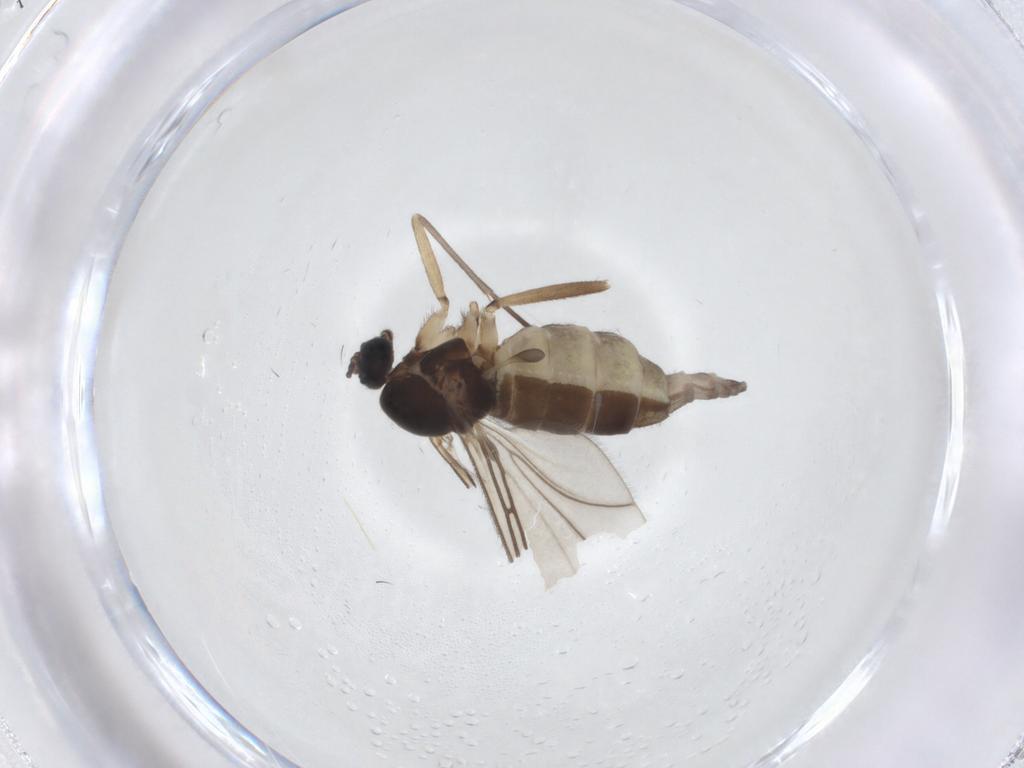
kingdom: Animalia
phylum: Arthropoda
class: Insecta
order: Diptera
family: Sciaridae
